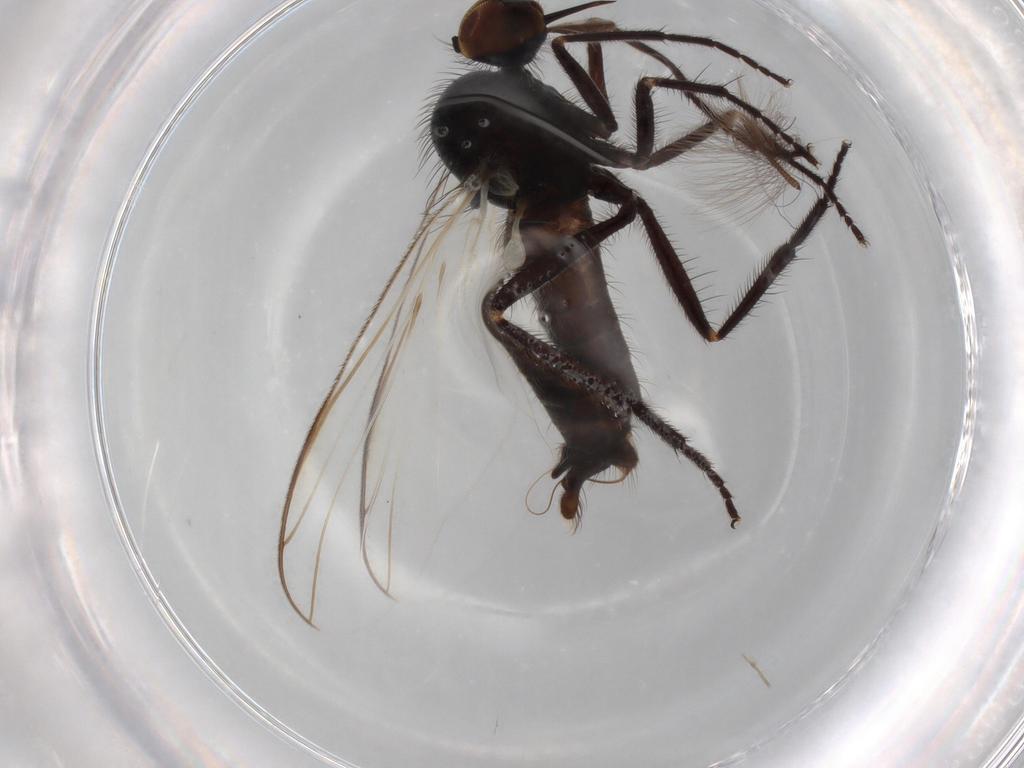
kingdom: Animalia
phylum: Arthropoda
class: Insecta
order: Diptera
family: Empididae
